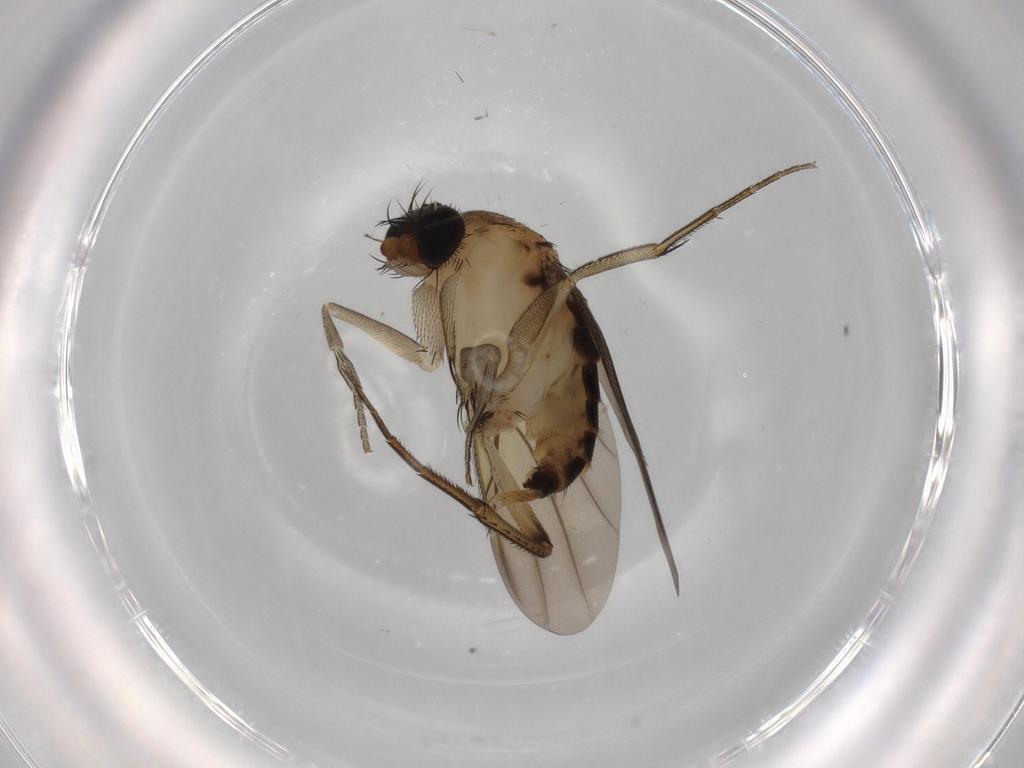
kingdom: Animalia
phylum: Arthropoda
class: Insecta
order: Diptera
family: Phoridae
